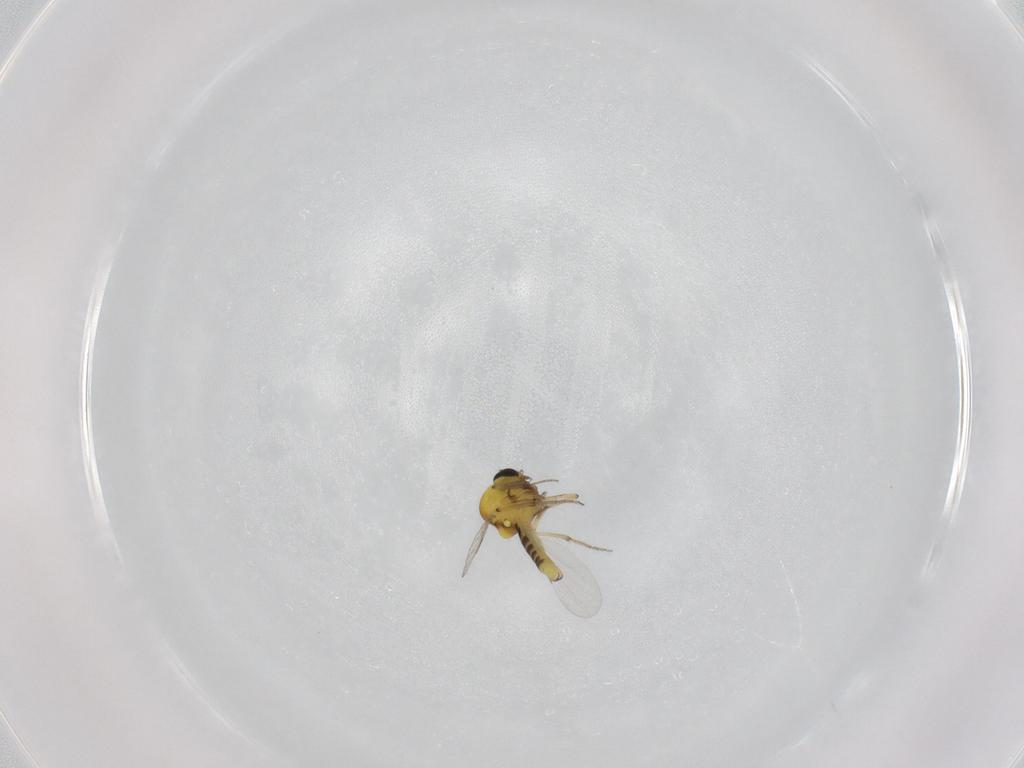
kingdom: Animalia
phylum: Arthropoda
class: Insecta
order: Diptera
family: Ceratopogonidae
